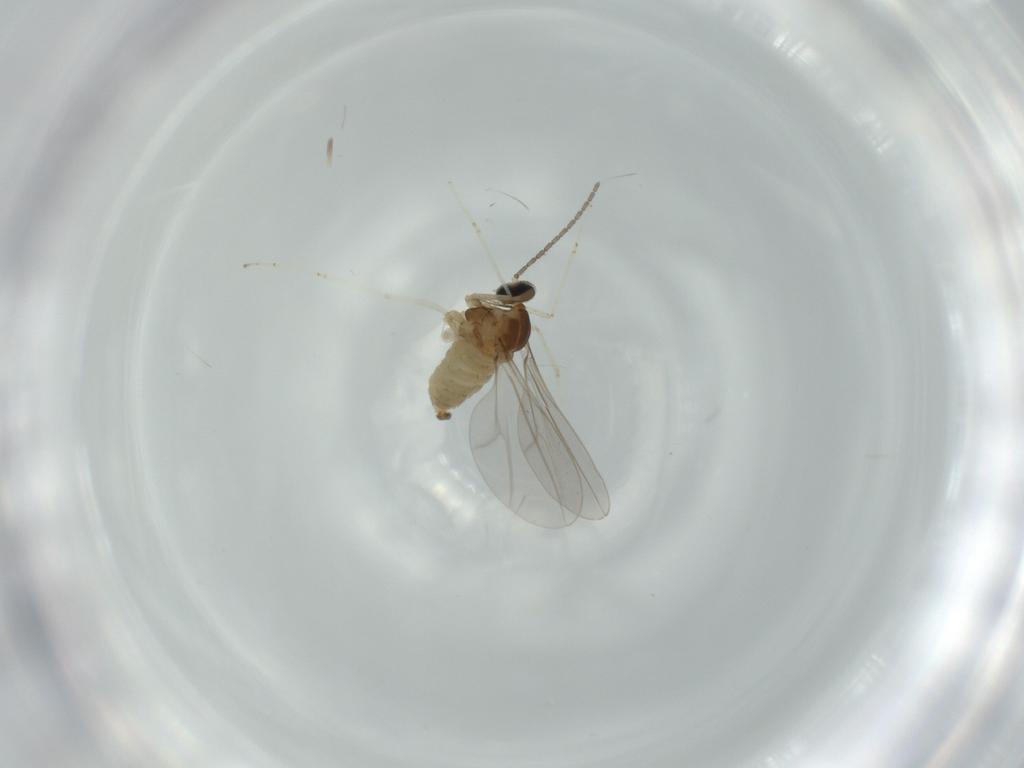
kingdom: Animalia
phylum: Arthropoda
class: Insecta
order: Diptera
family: Cecidomyiidae
